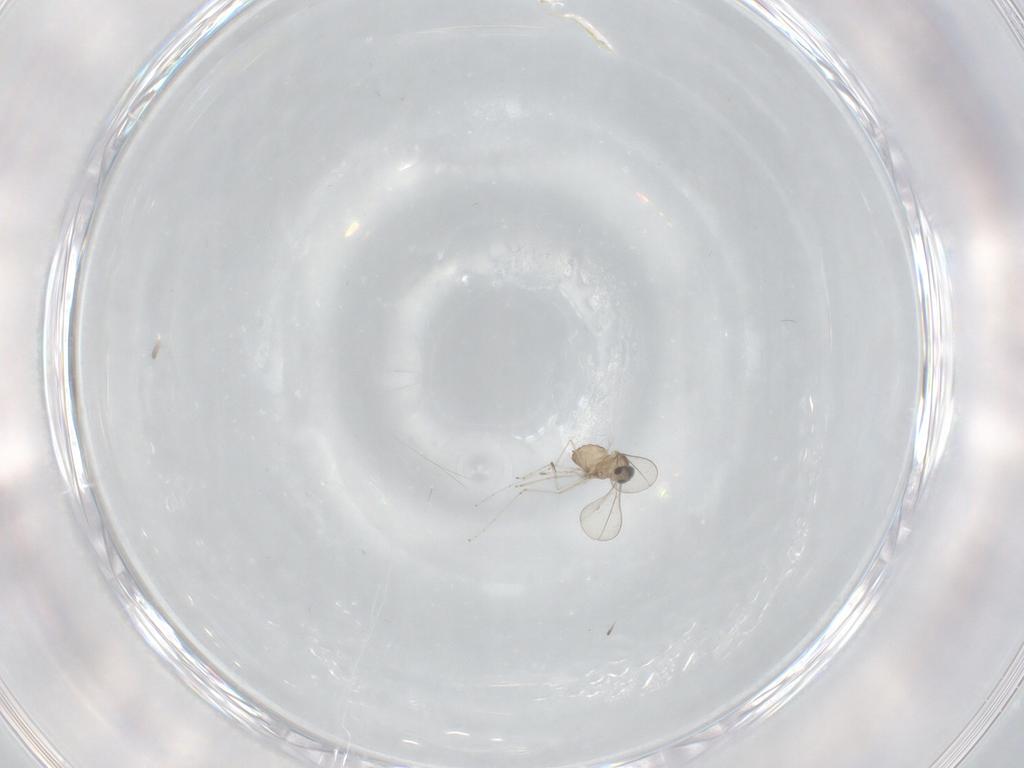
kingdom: Animalia
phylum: Arthropoda
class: Insecta
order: Diptera
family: Cecidomyiidae
